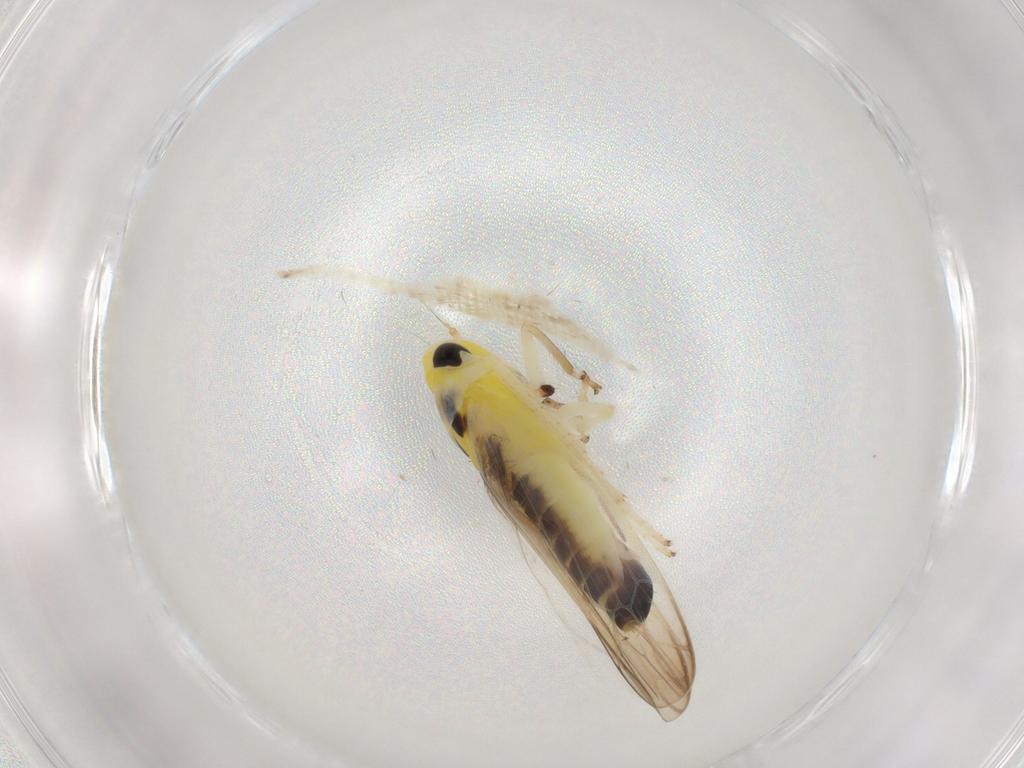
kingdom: Animalia
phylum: Arthropoda
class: Insecta
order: Hemiptera
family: Cicadellidae
